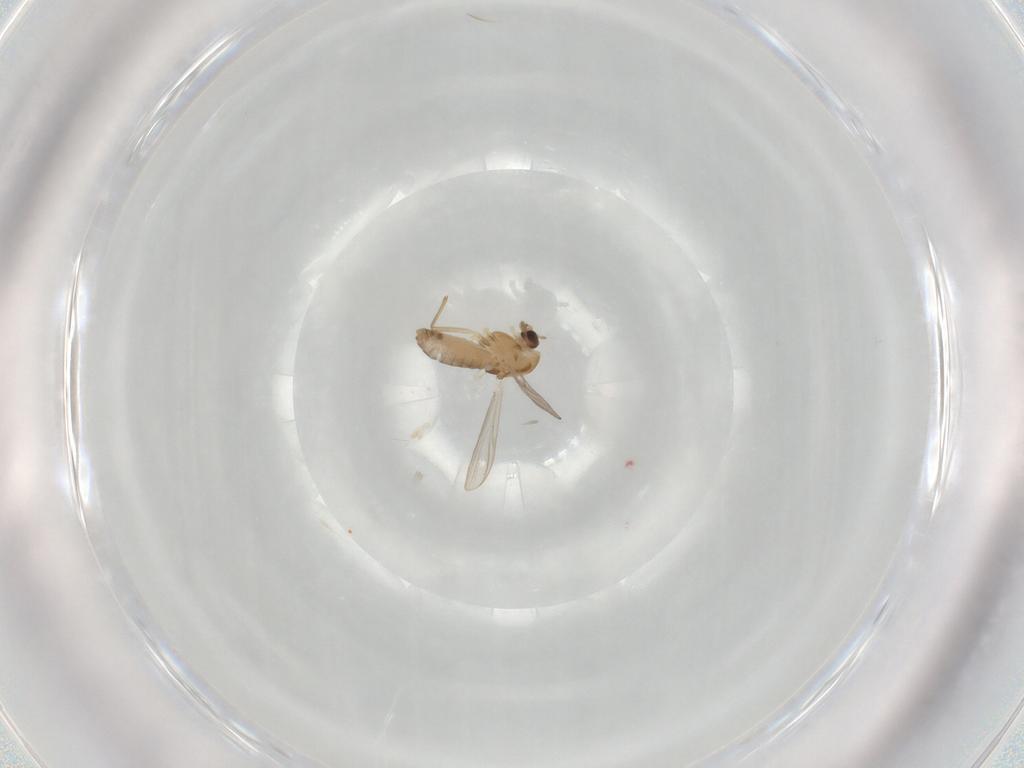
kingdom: Animalia
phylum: Arthropoda
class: Insecta
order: Diptera
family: Chironomidae
